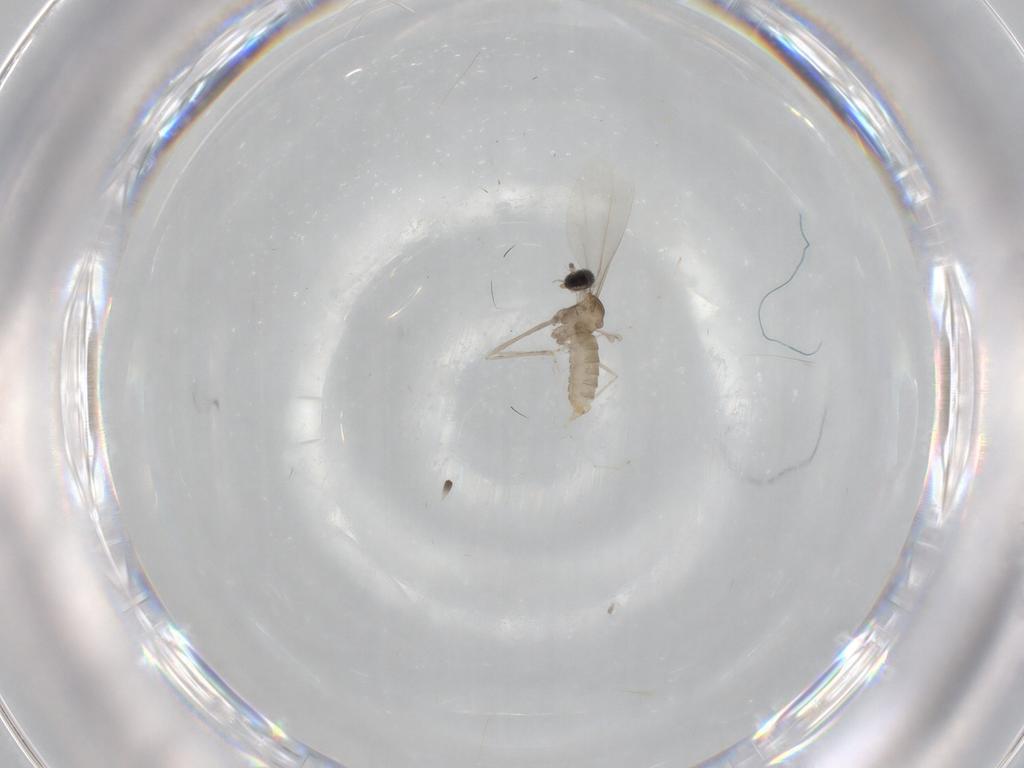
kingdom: Animalia
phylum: Arthropoda
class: Insecta
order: Diptera
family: Cecidomyiidae
